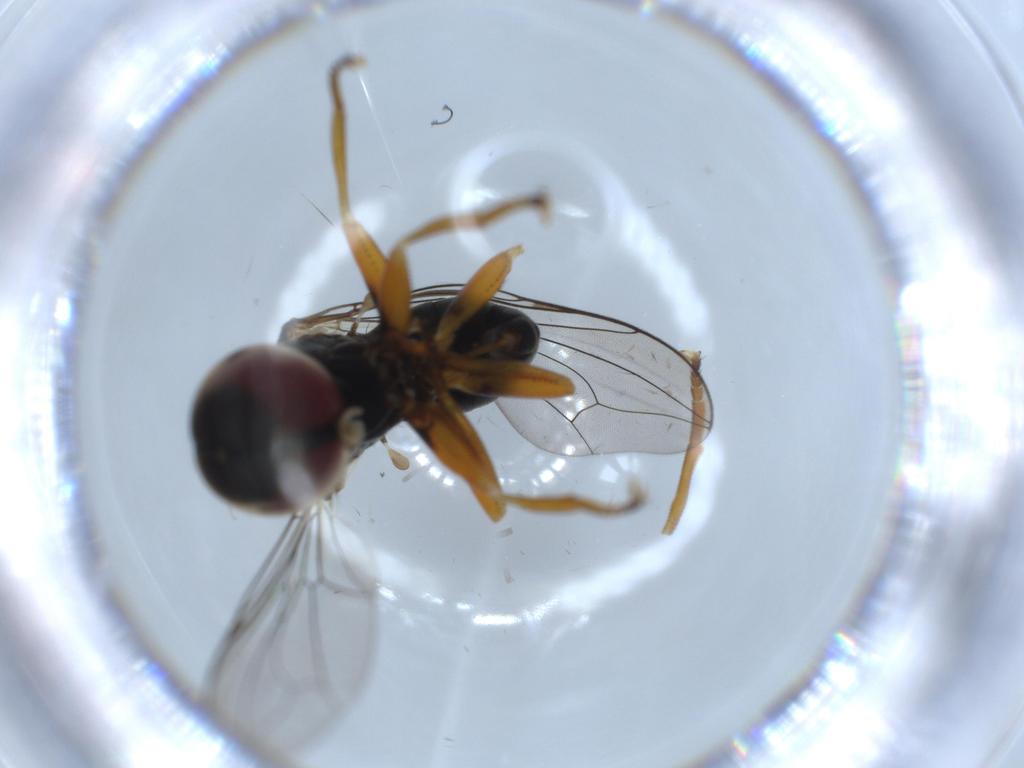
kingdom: Animalia
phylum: Arthropoda
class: Insecta
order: Diptera
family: Pipunculidae
